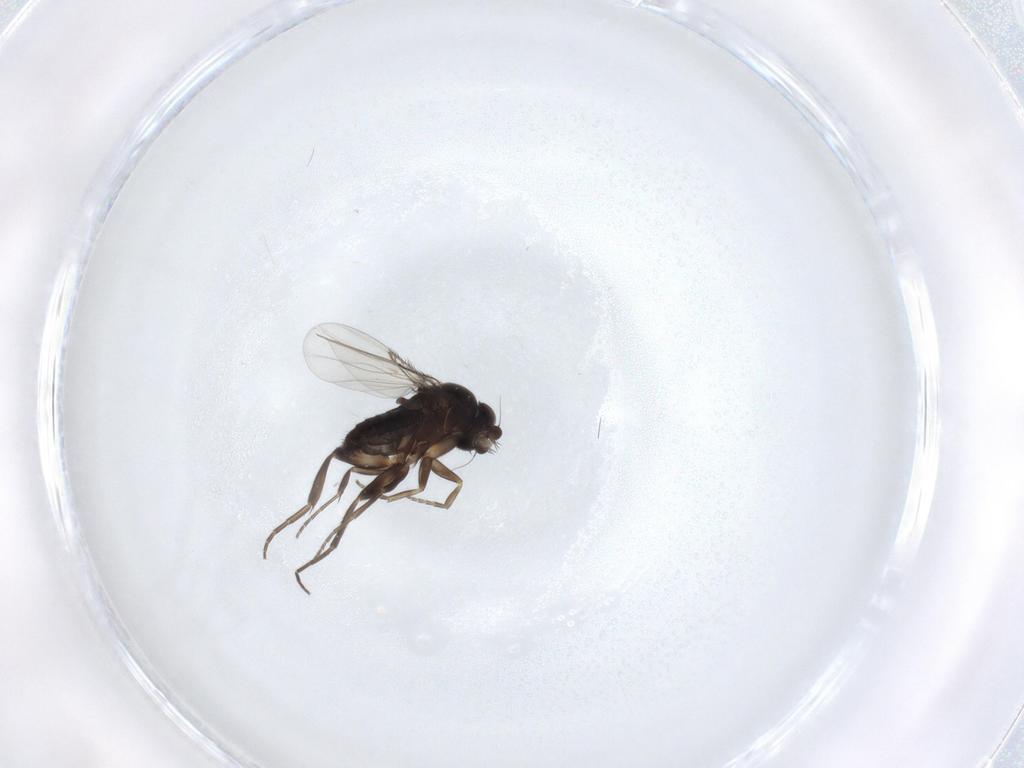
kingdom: Animalia
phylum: Arthropoda
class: Insecta
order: Diptera
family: Phoridae
